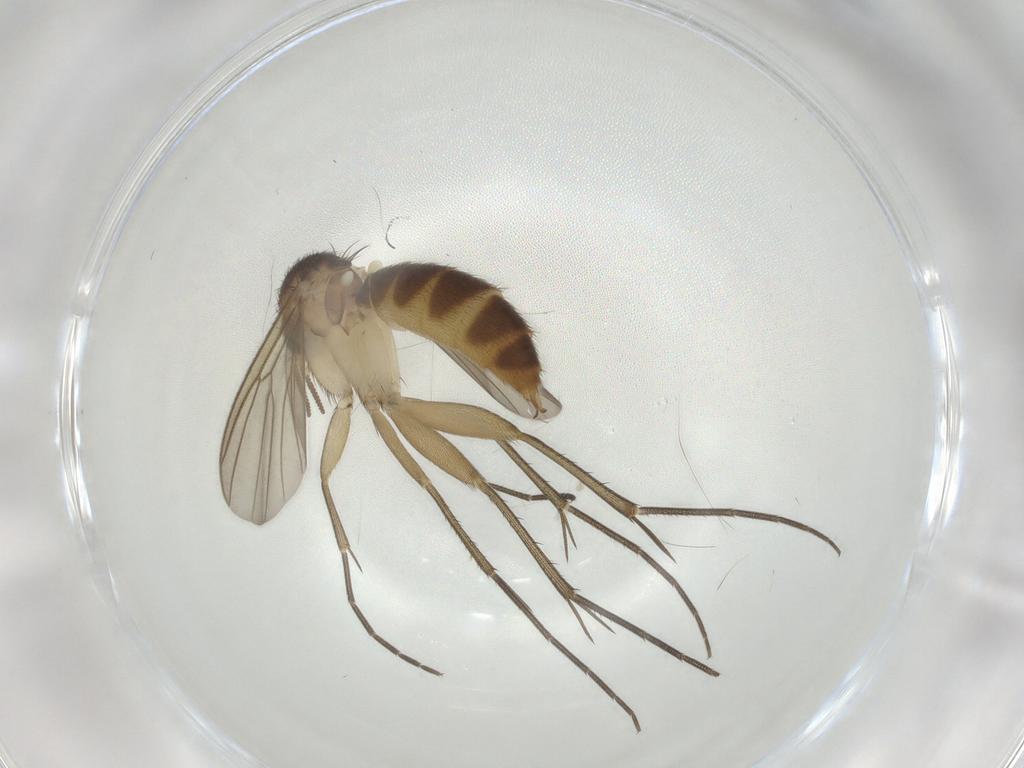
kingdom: Animalia
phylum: Arthropoda
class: Insecta
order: Diptera
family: Mycetophilidae
